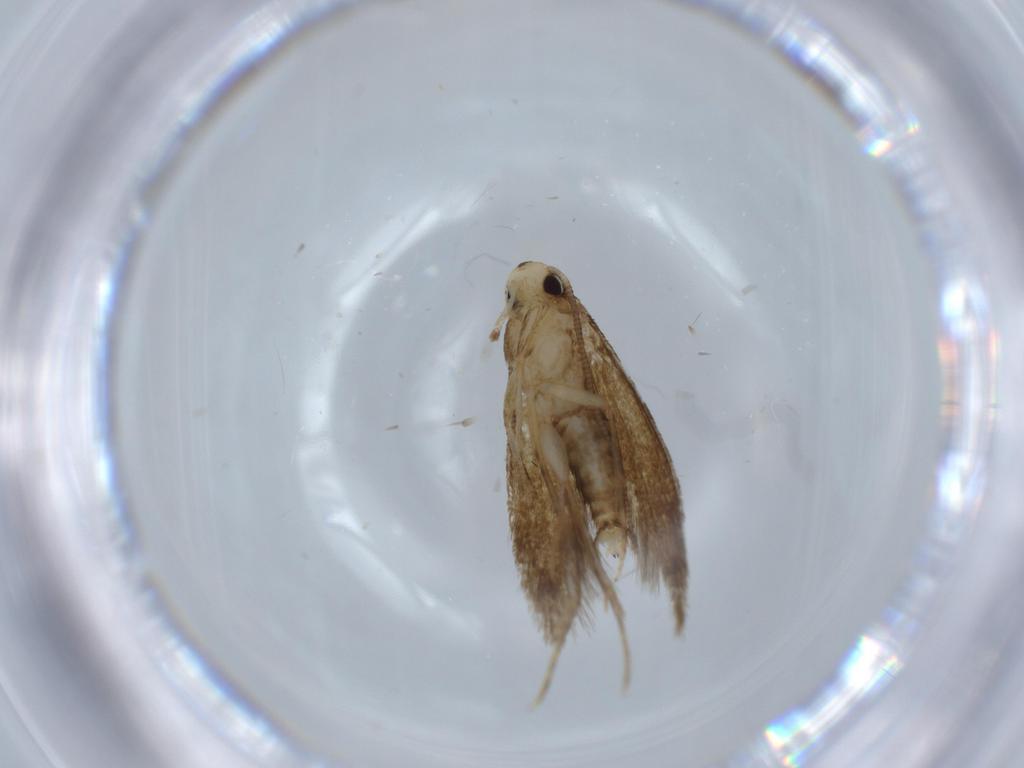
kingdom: Animalia
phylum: Arthropoda
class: Insecta
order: Lepidoptera
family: Tineidae
